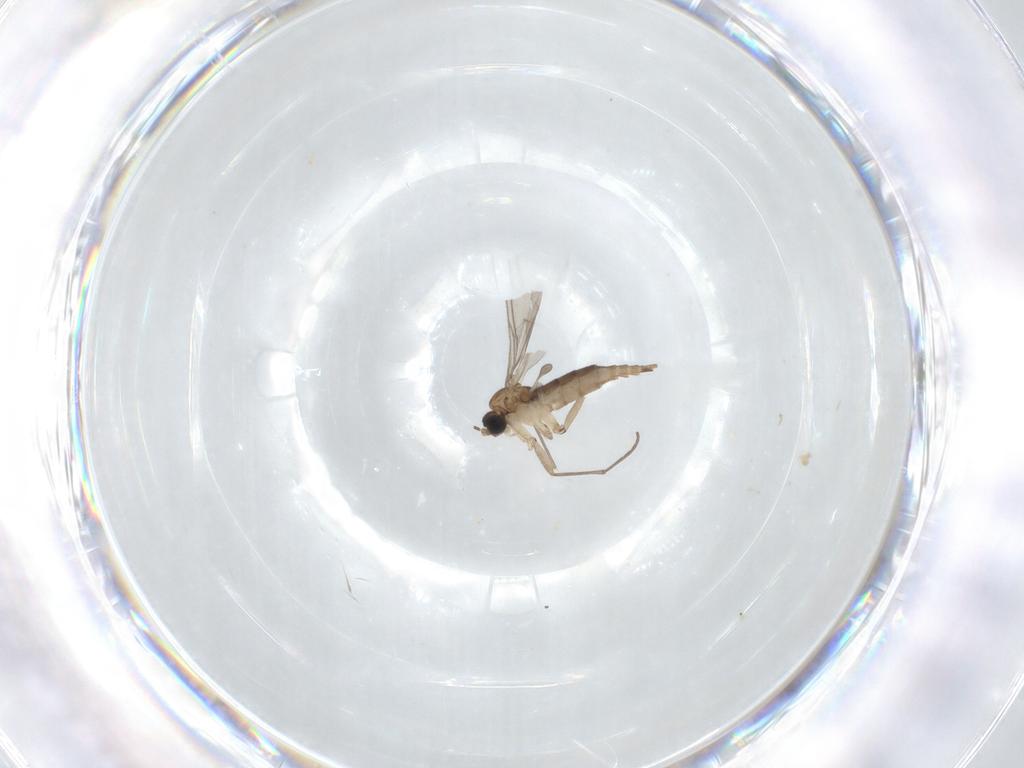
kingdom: Animalia
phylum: Arthropoda
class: Insecta
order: Diptera
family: Sciaridae
